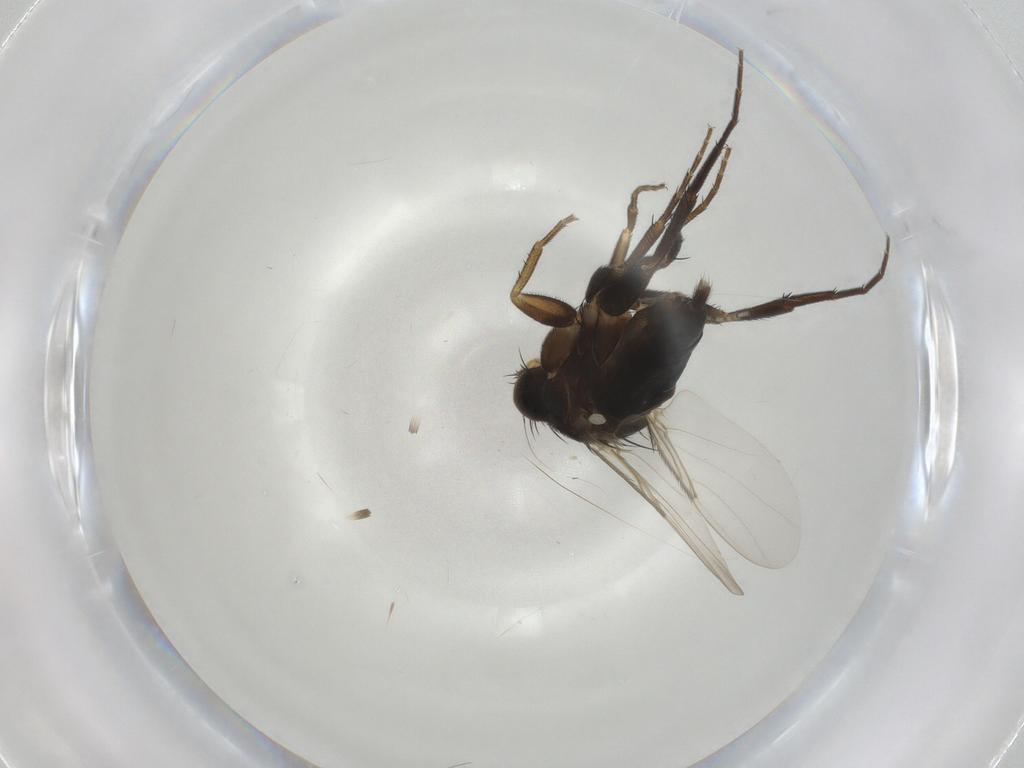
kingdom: Animalia
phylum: Arthropoda
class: Insecta
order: Diptera
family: Phoridae
